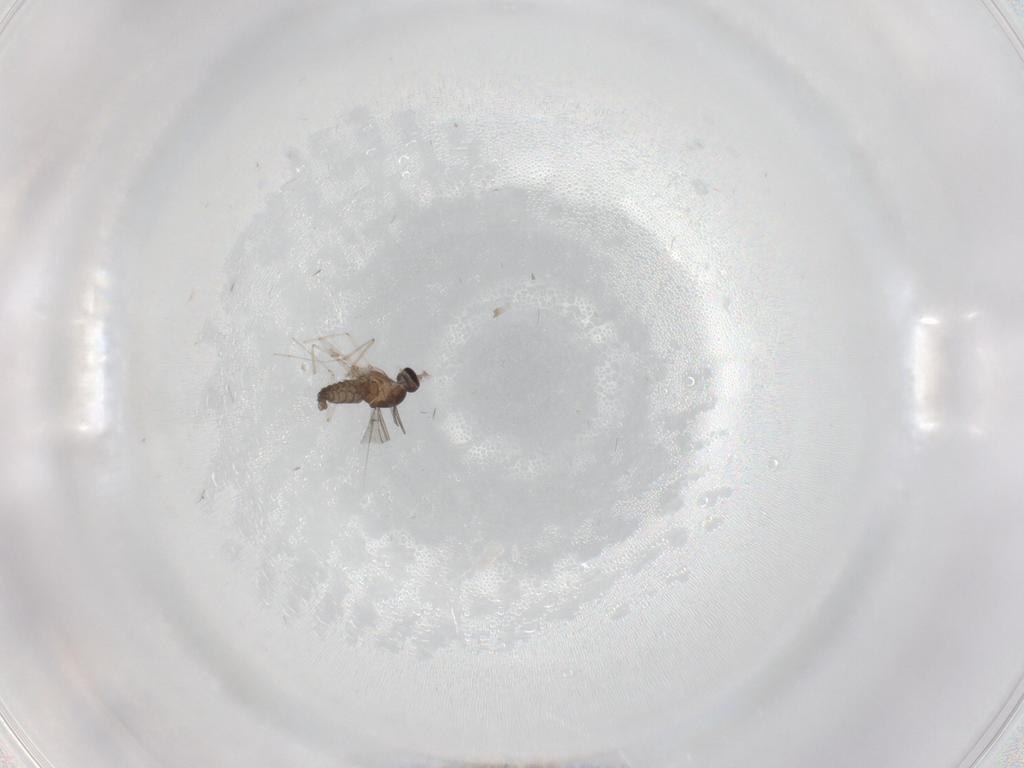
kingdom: Animalia
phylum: Arthropoda
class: Insecta
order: Diptera
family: Cecidomyiidae
